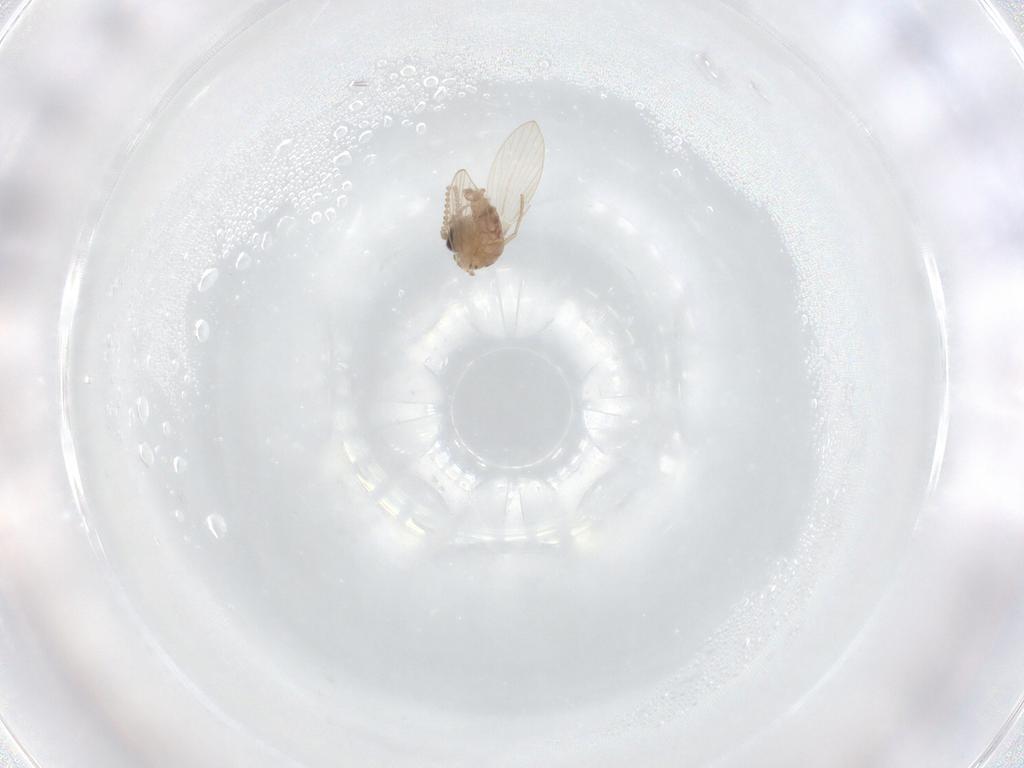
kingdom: Animalia
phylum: Arthropoda
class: Insecta
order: Diptera
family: Psychodidae
